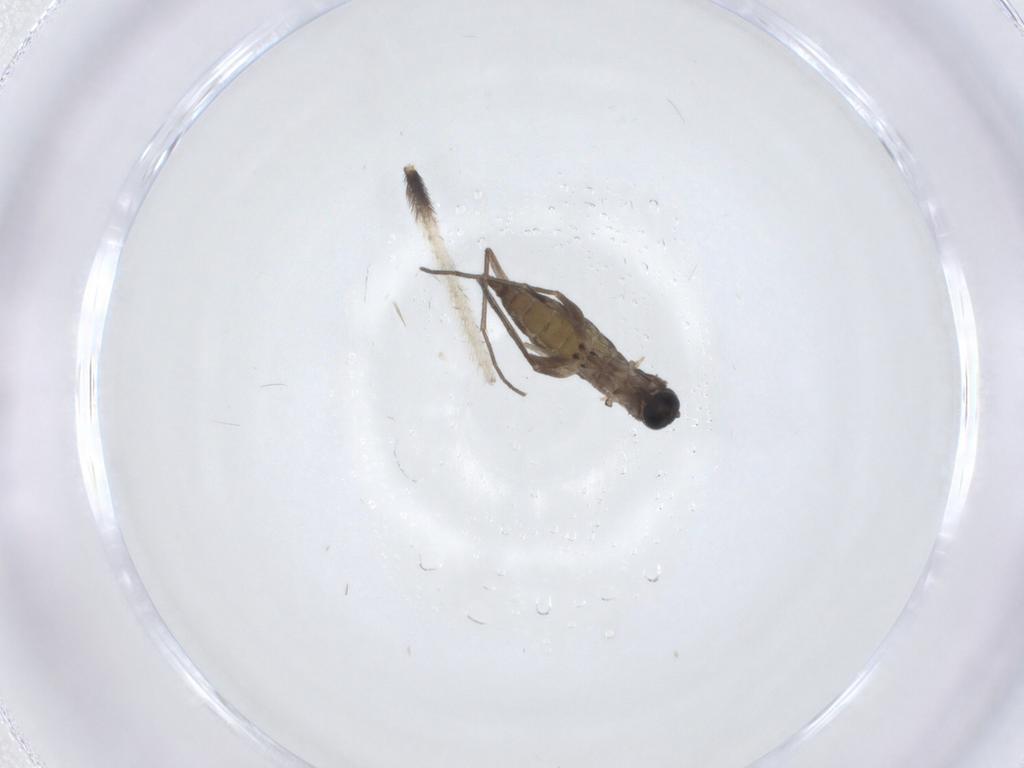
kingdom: Animalia
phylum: Arthropoda
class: Insecta
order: Diptera
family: Sciaridae
